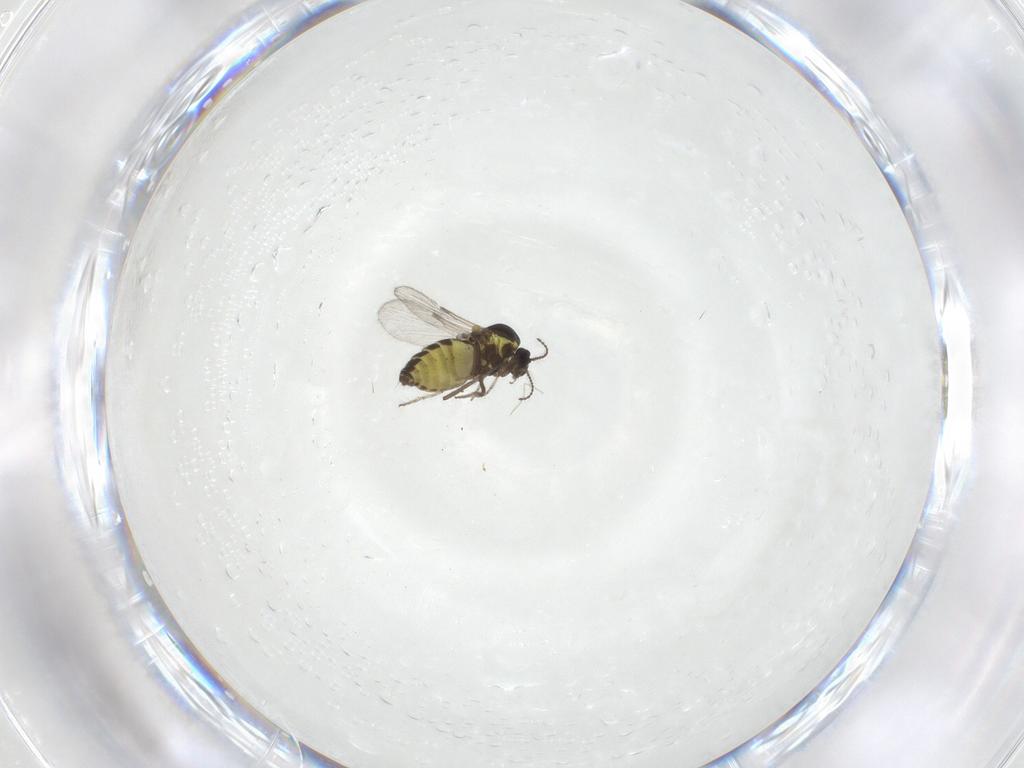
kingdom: Animalia
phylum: Arthropoda
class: Insecta
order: Diptera
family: Ceratopogonidae
